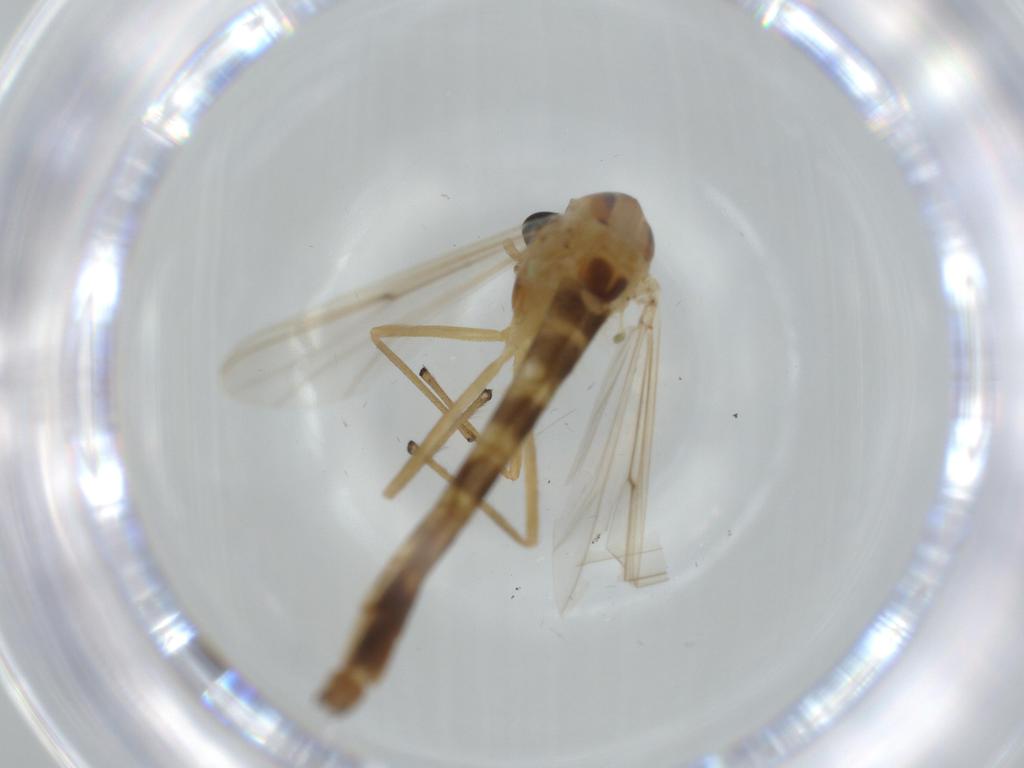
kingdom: Animalia
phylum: Arthropoda
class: Insecta
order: Diptera
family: Chironomidae
